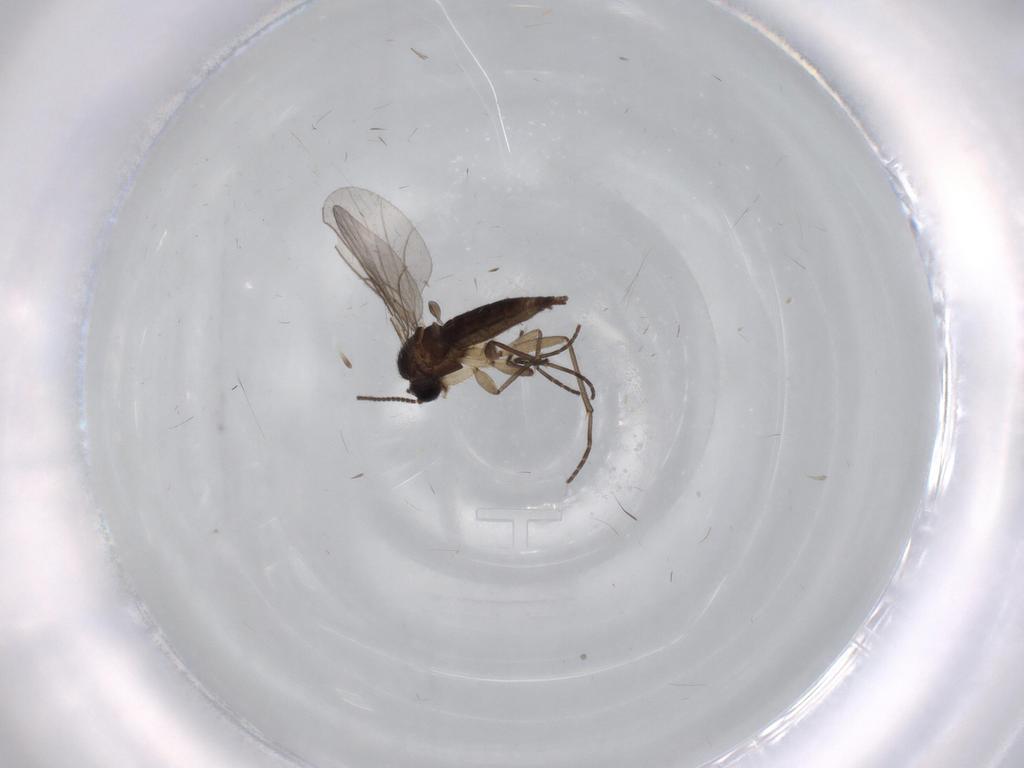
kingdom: Animalia
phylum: Arthropoda
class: Insecta
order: Diptera
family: Sciaridae
